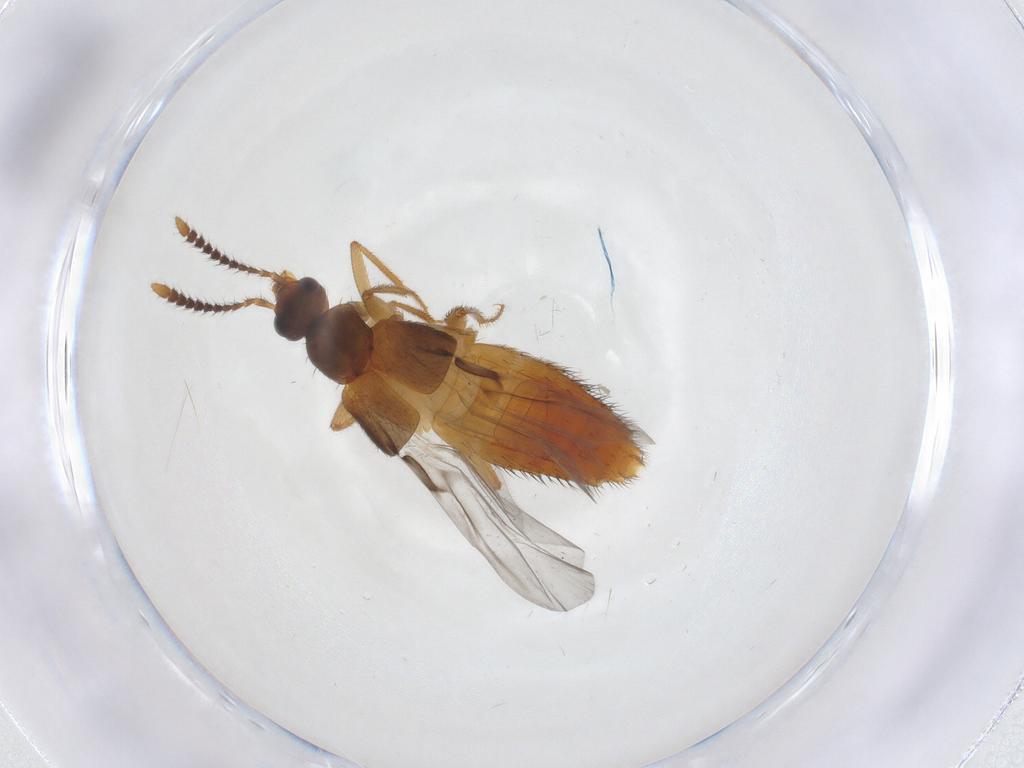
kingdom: Animalia
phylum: Arthropoda
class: Insecta
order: Coleoptera
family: Staphylinidae
